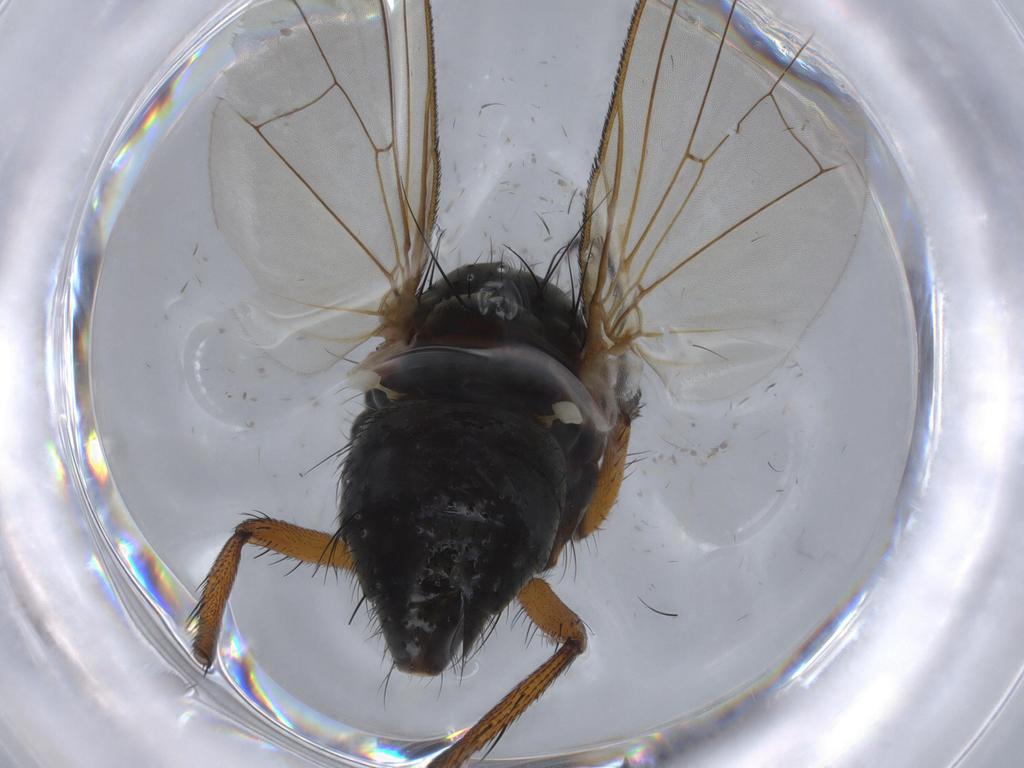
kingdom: Animalia
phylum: Arthropoda
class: Insecta
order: Diptera
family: Anthomyiidae
